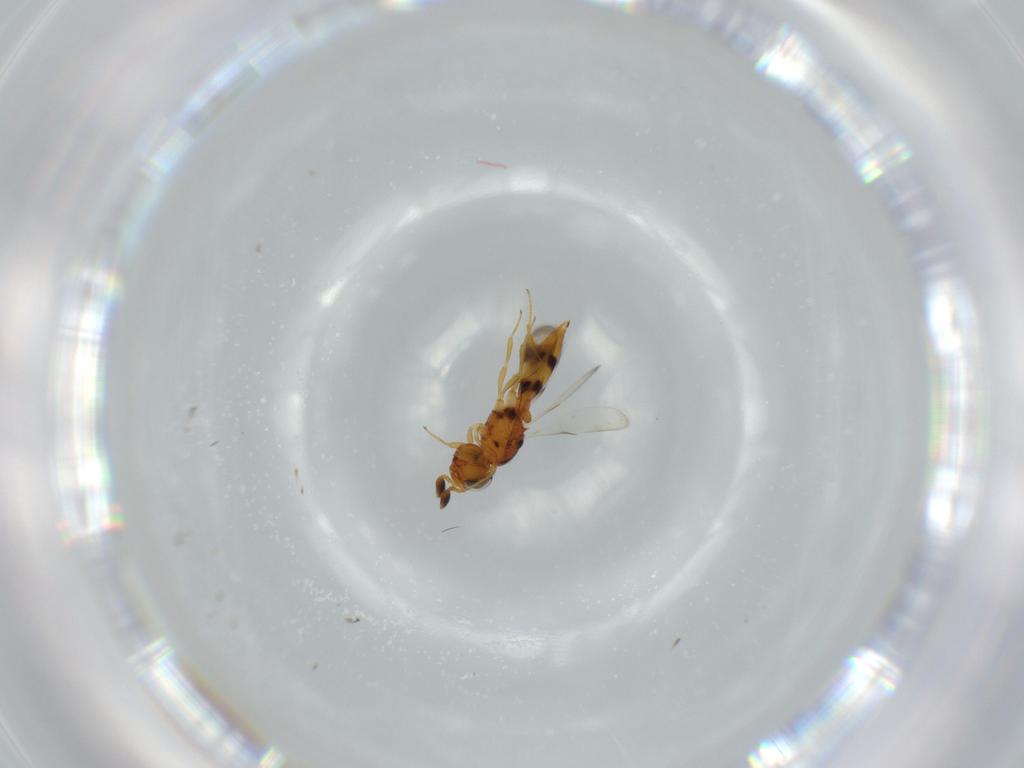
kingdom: Animalia
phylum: Arthropoda
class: Insecta
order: Hymenoptera
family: Scelionidae
